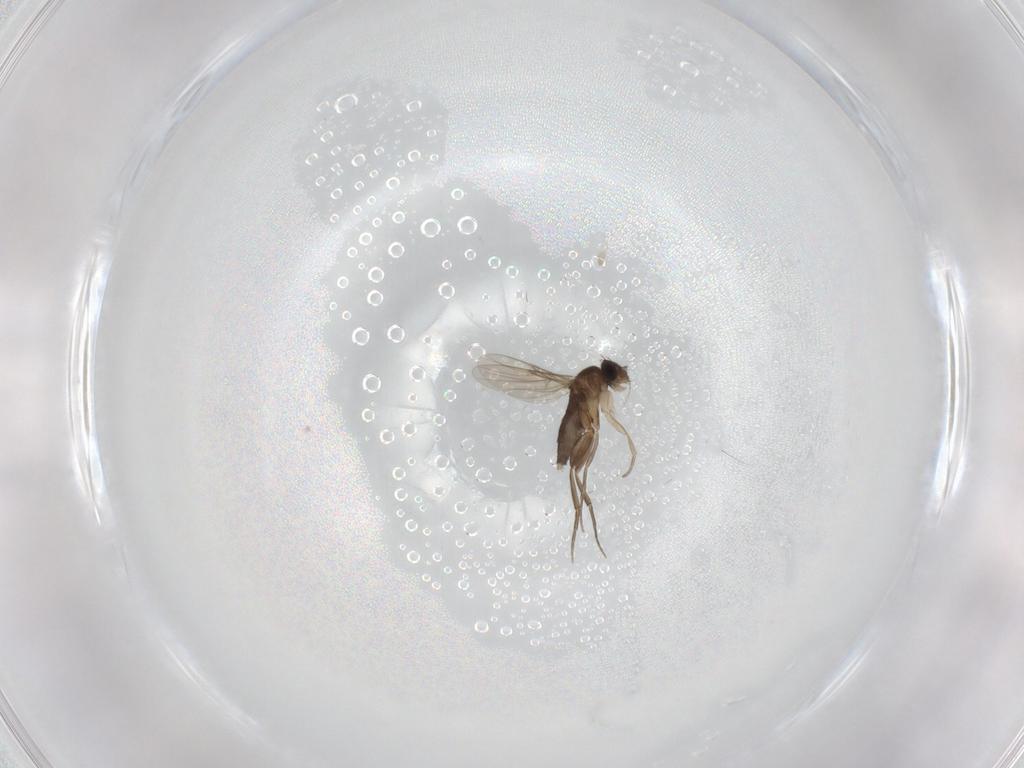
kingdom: Animalia
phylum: Arthropoda
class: Insecta
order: Diptera
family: Phoridae
